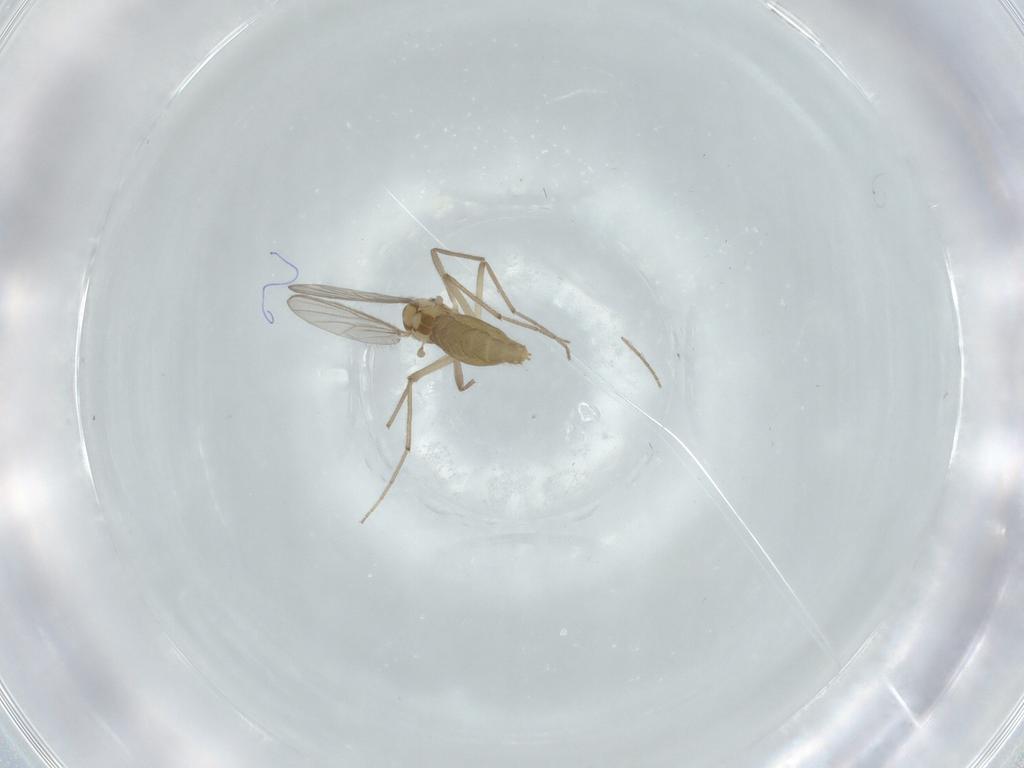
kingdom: Animalia
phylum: Arthropoda
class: Insecta
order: Diptera
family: Chironomidae
